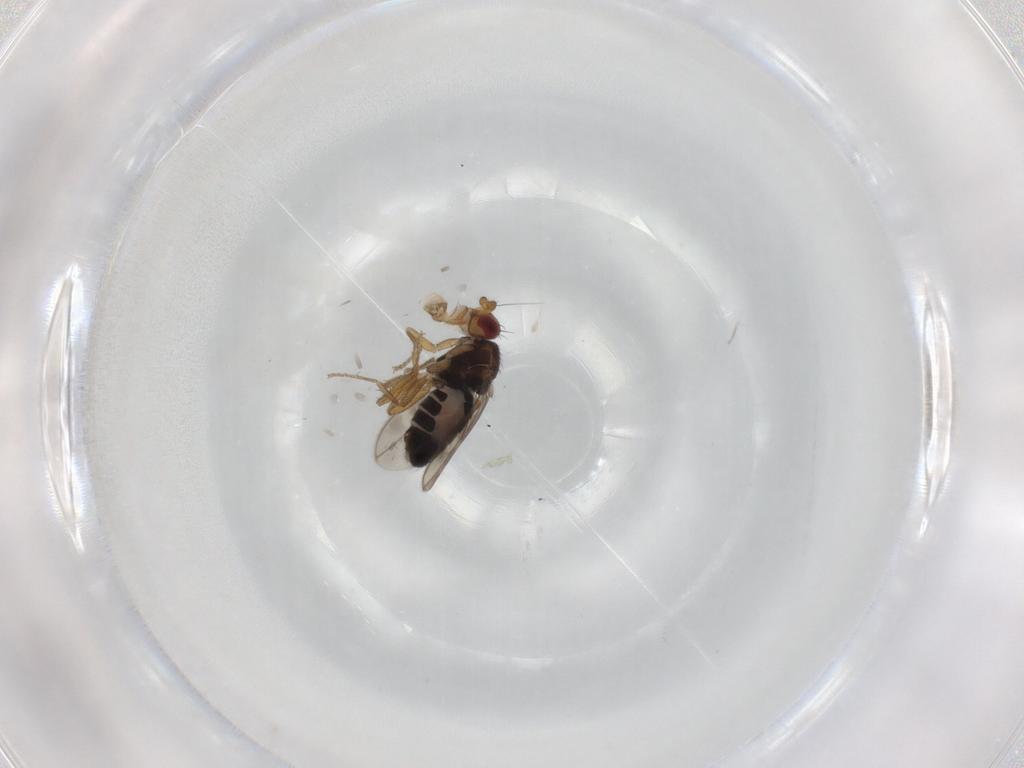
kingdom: Animalia
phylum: Arthropoda
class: Insecta
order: Diptera
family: Sphaeroceridae
